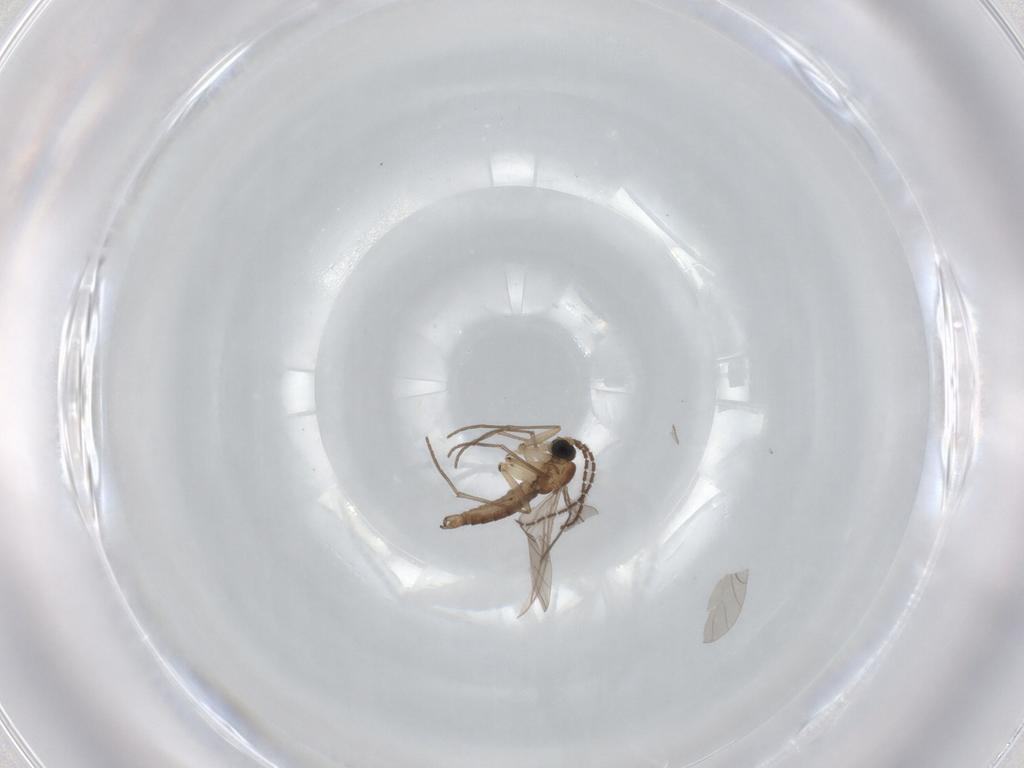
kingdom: Animalia
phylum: Arthropoda
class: Insecta
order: Diptera
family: Sciaridae
